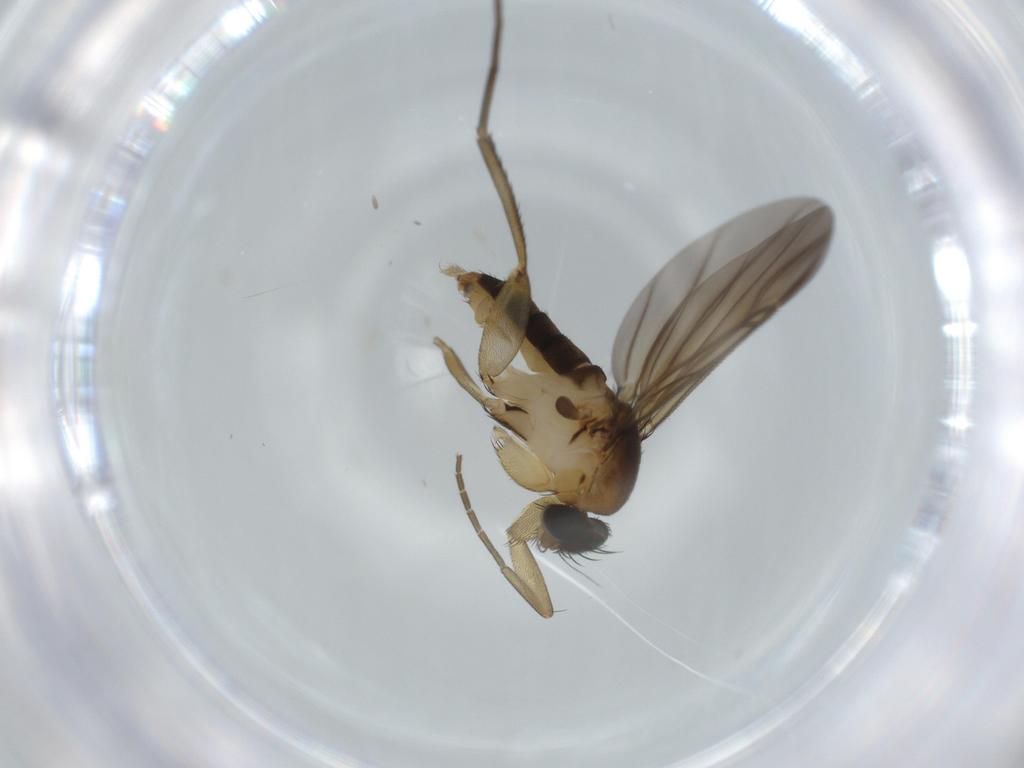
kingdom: Animalia
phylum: Arthropoda
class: Insecta
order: Diptera
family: Phoridae
